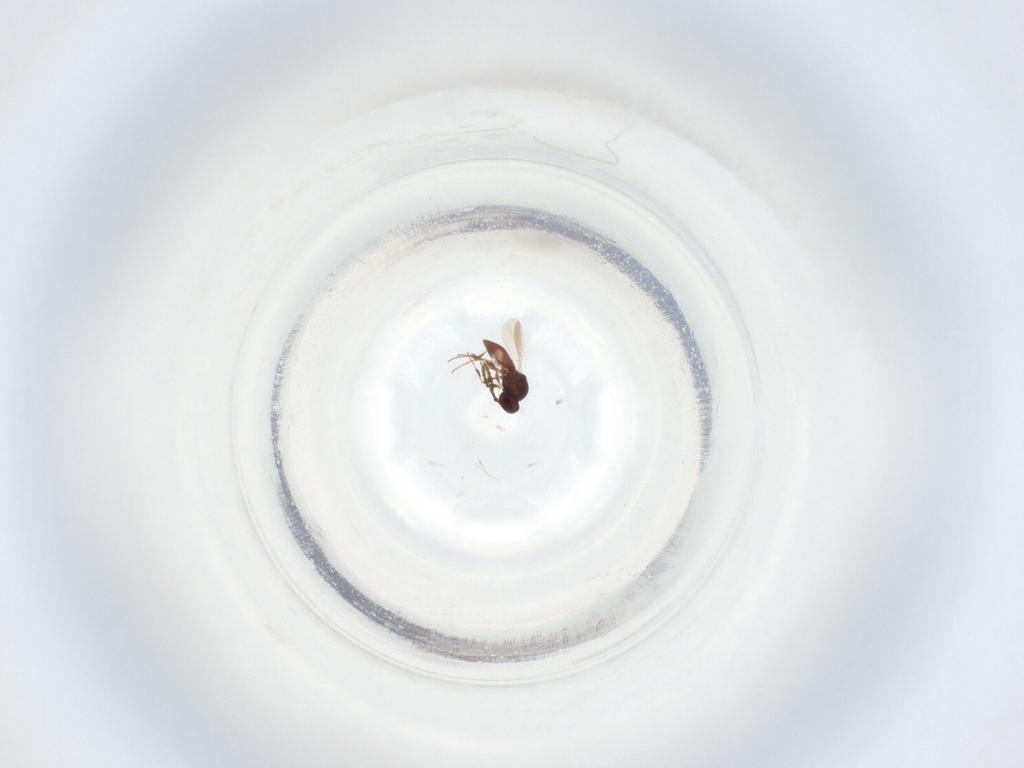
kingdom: Animalia
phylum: Arthropoda
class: Insecta
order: Hymenoptera
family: Platygastridae
